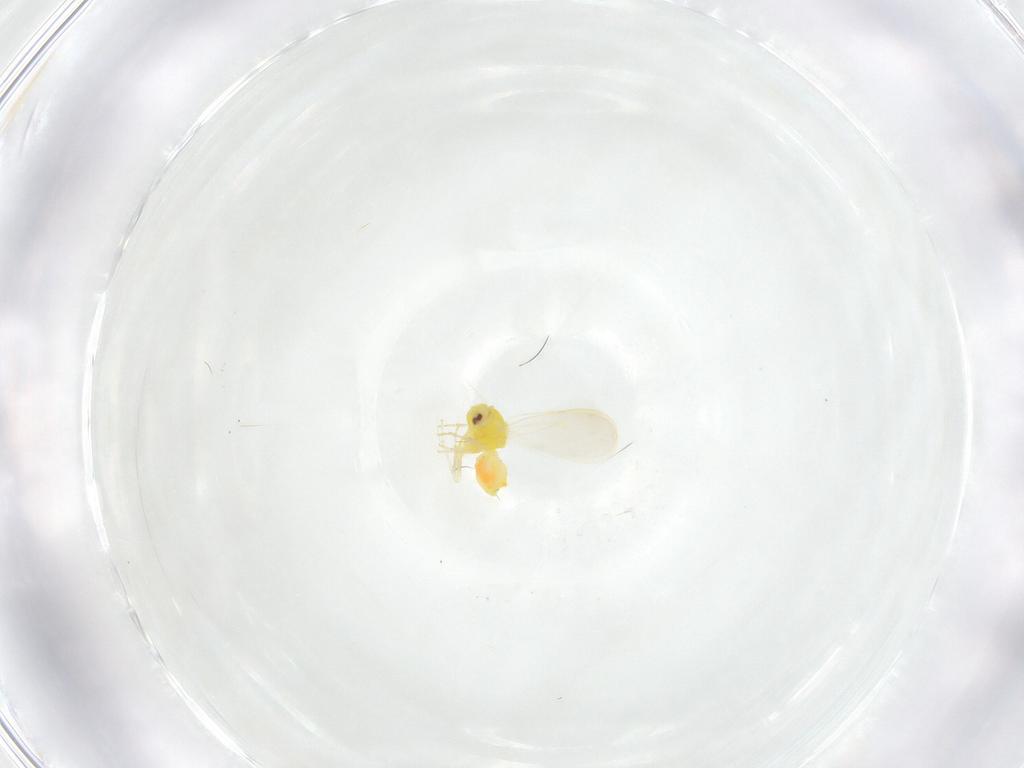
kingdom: Animalia
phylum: Arthropoda
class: Insecta
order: Hemiptera
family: Aleyrodidae
